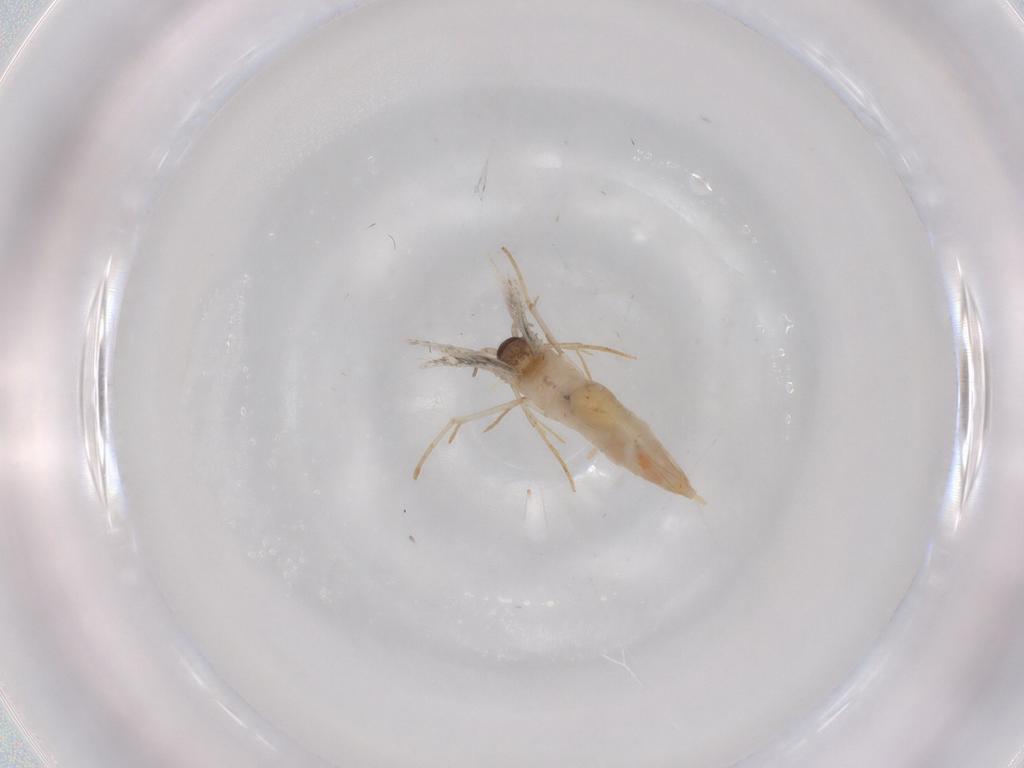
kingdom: Animalia
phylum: Arthropoda
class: Insecta
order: Lepidoptera
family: Tineidae
